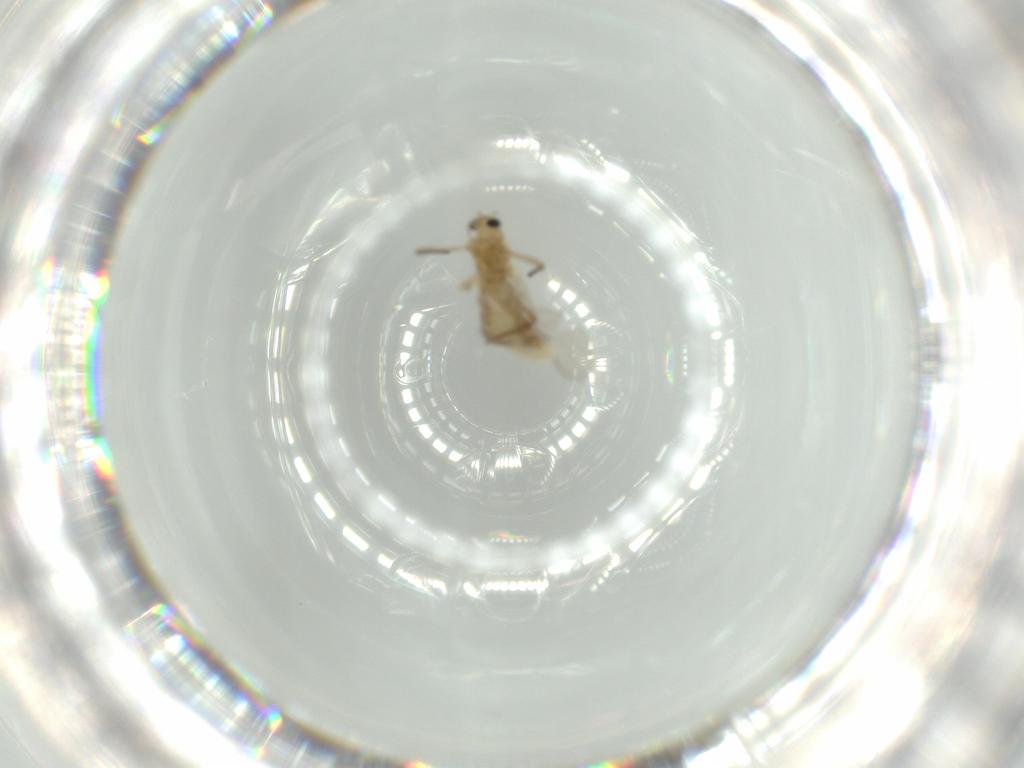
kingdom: Animalia
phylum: Arthropoda
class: Insecta
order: Diptera
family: Chironomidae
